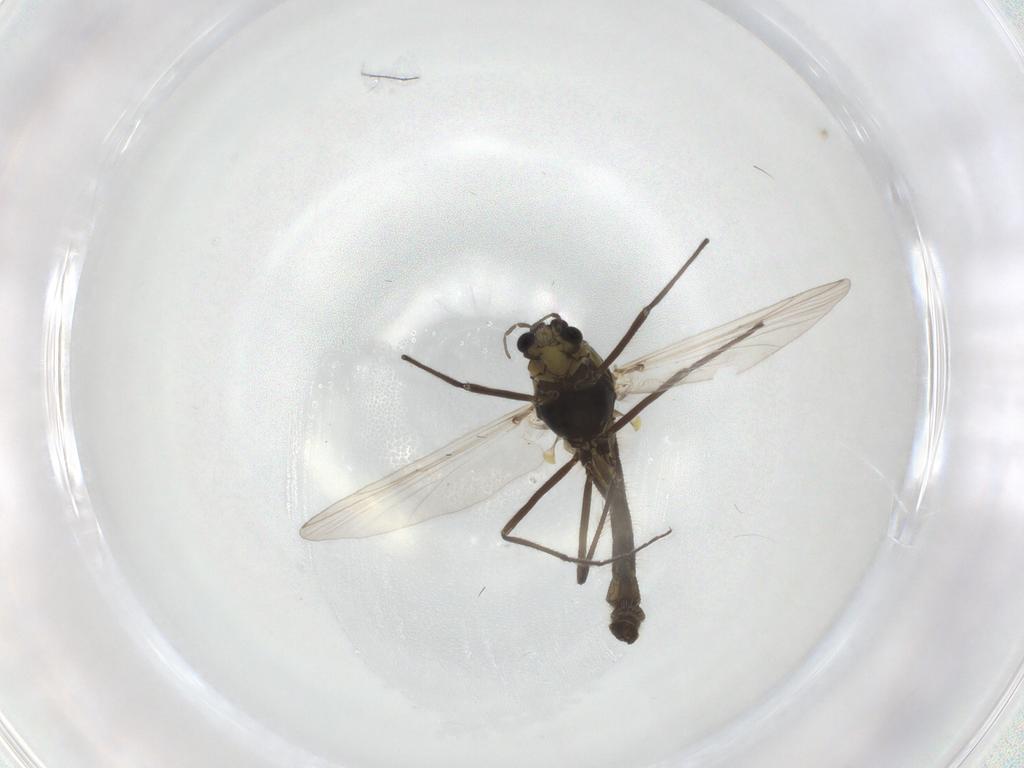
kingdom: Animalia
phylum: Arthropoda
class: Insecta
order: Diptera
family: Chironomidae
